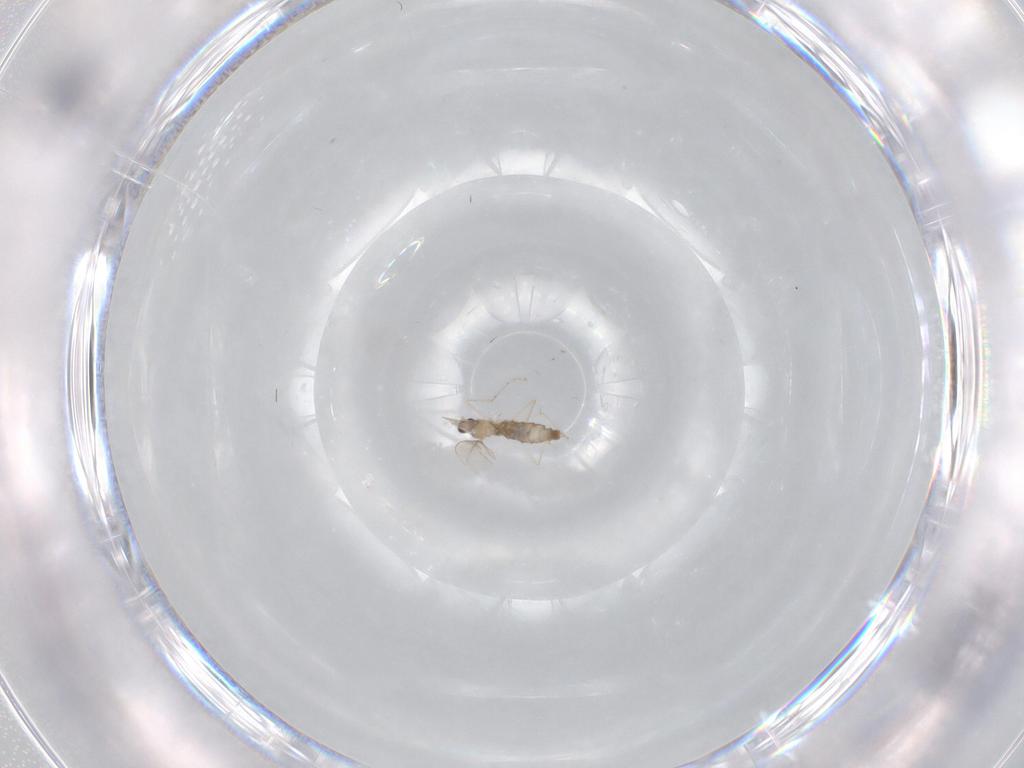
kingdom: Animalia
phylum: Arthropoda
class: Insecta
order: Diptera
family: Cecidomyiidae
